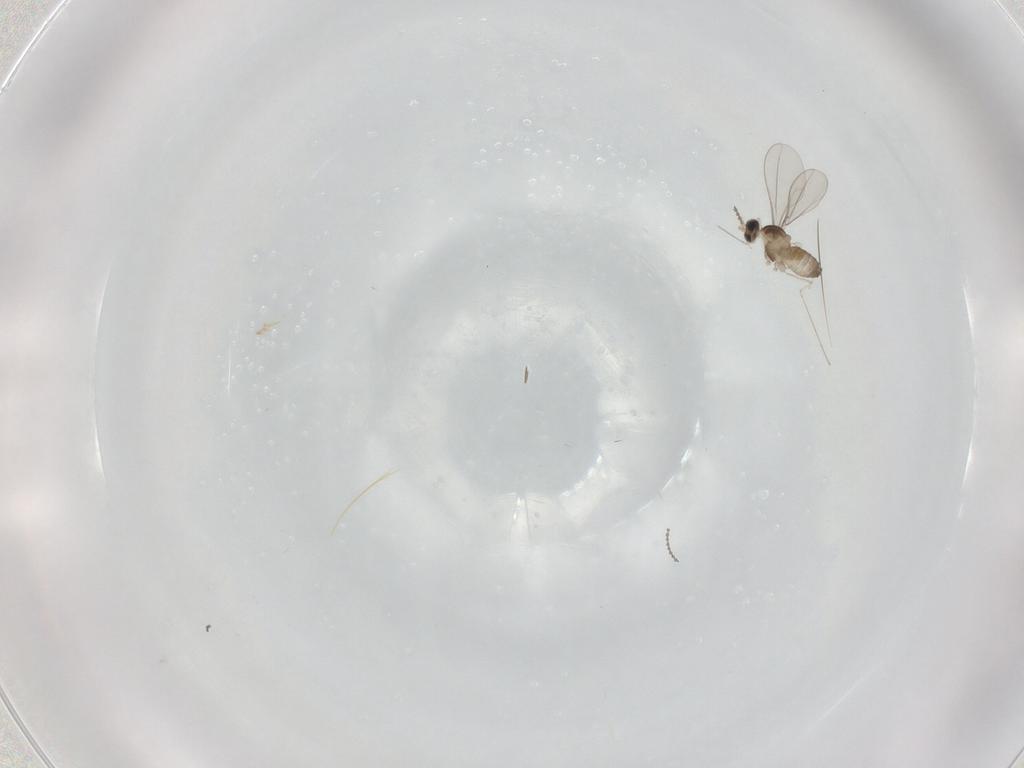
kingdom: Animalia
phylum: Arthropoda
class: Insecta
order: Diptera
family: Cecidomyiidae
